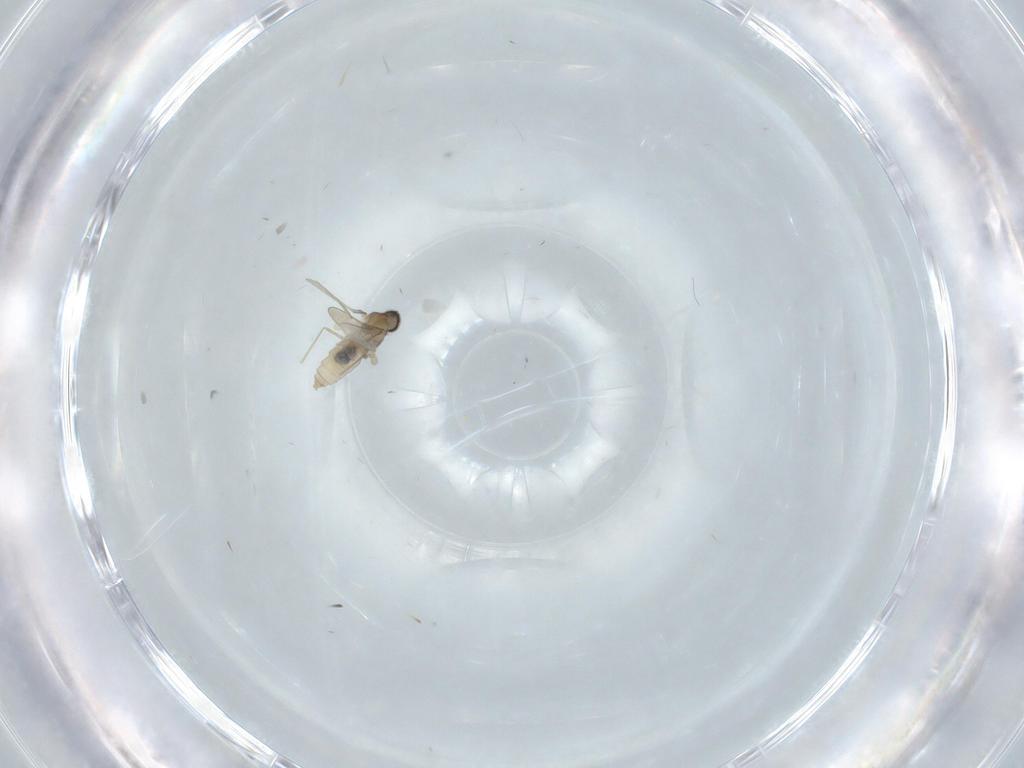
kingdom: Animalia
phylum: Arthropoda
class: Insecta
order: Diptera
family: Cecidomyiidae
